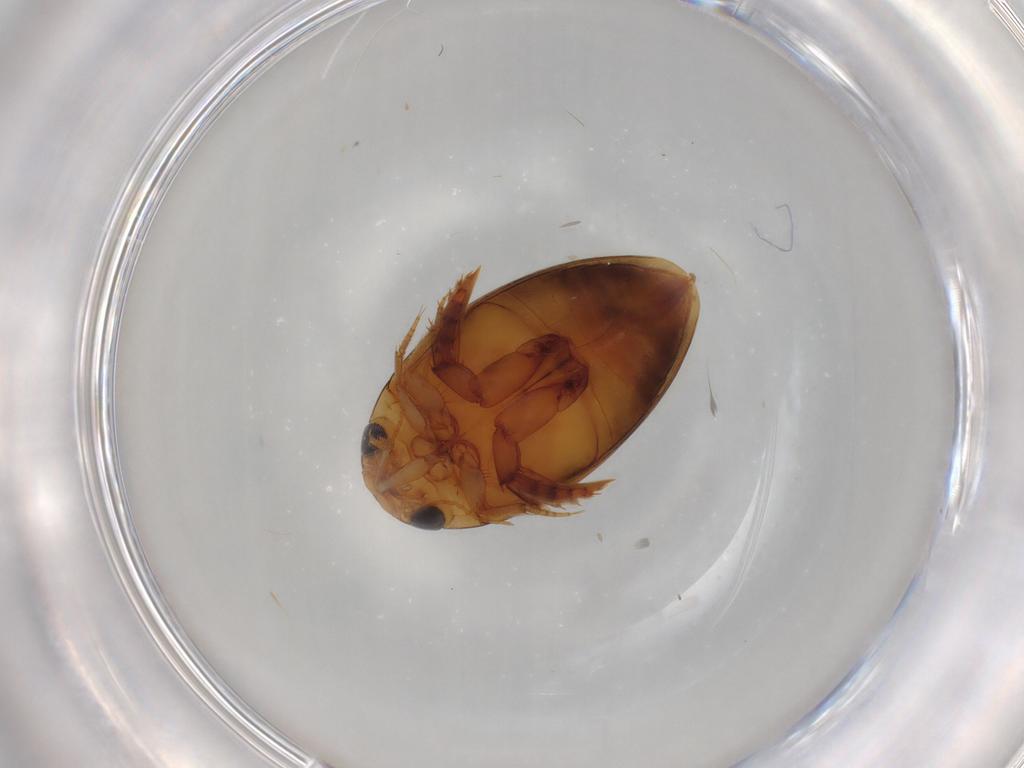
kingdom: Animalia
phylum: Arthropoda
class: Insecta
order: Coleoptera
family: Dytiscidae
